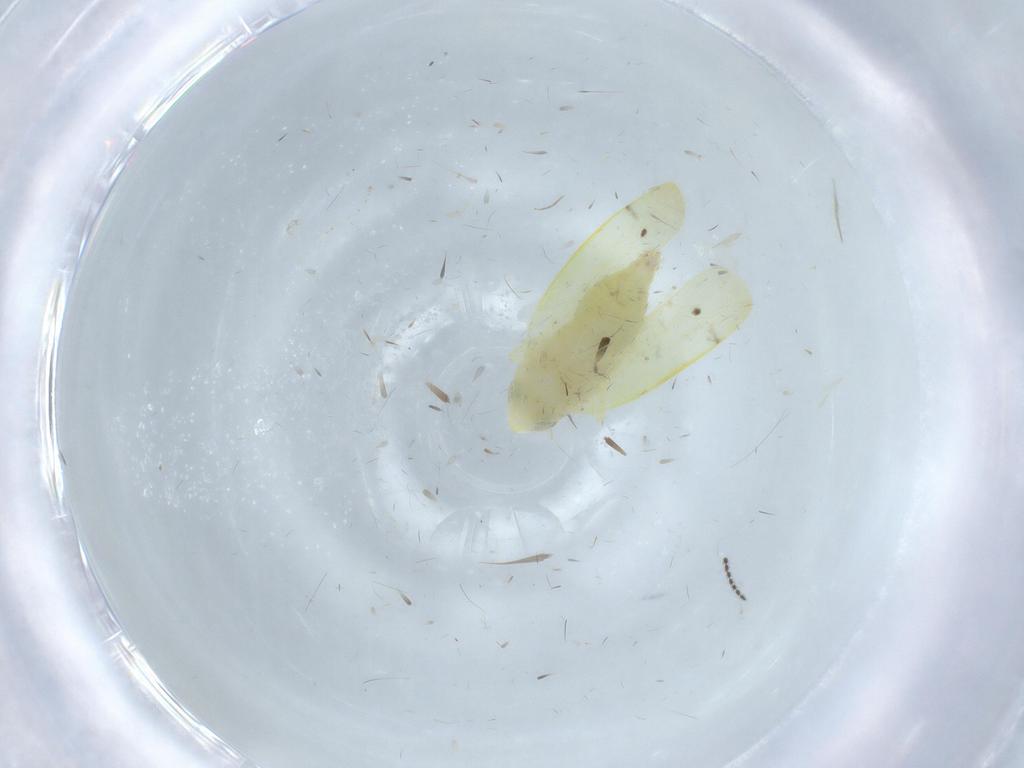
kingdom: Animalia
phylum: Arthropoda
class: Insecta
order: Hemiptera
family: Cicadellidae
